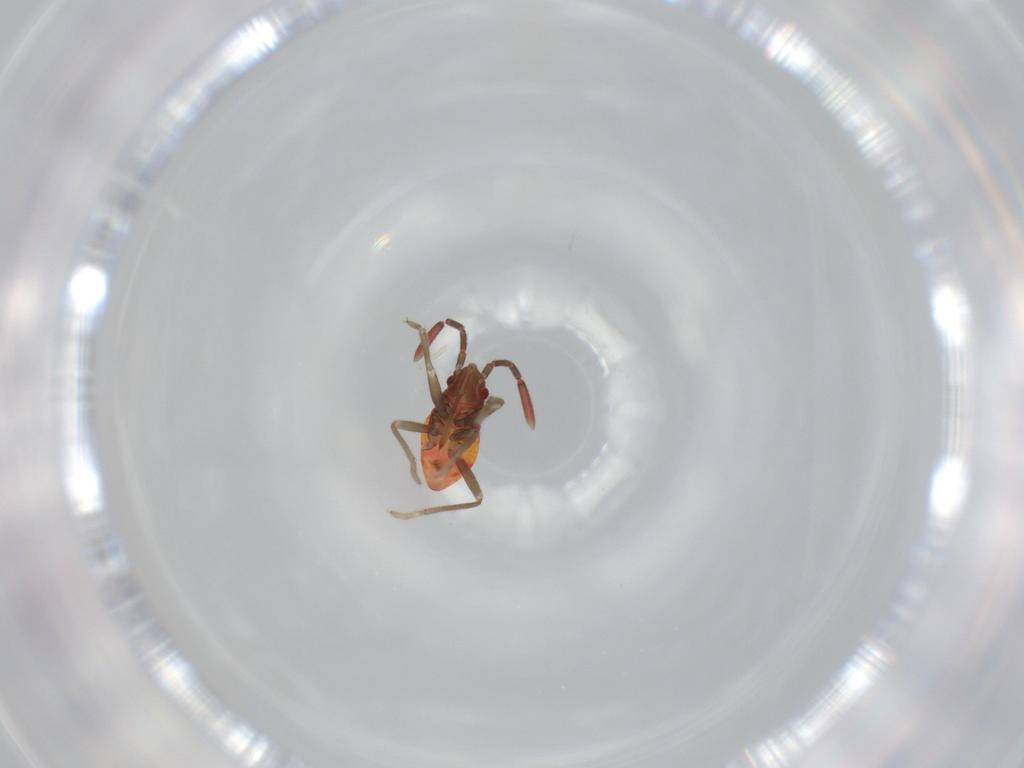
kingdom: Animalia
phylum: Arthropoda
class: Insecta
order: Hemiptera
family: Rhyparochromidae
